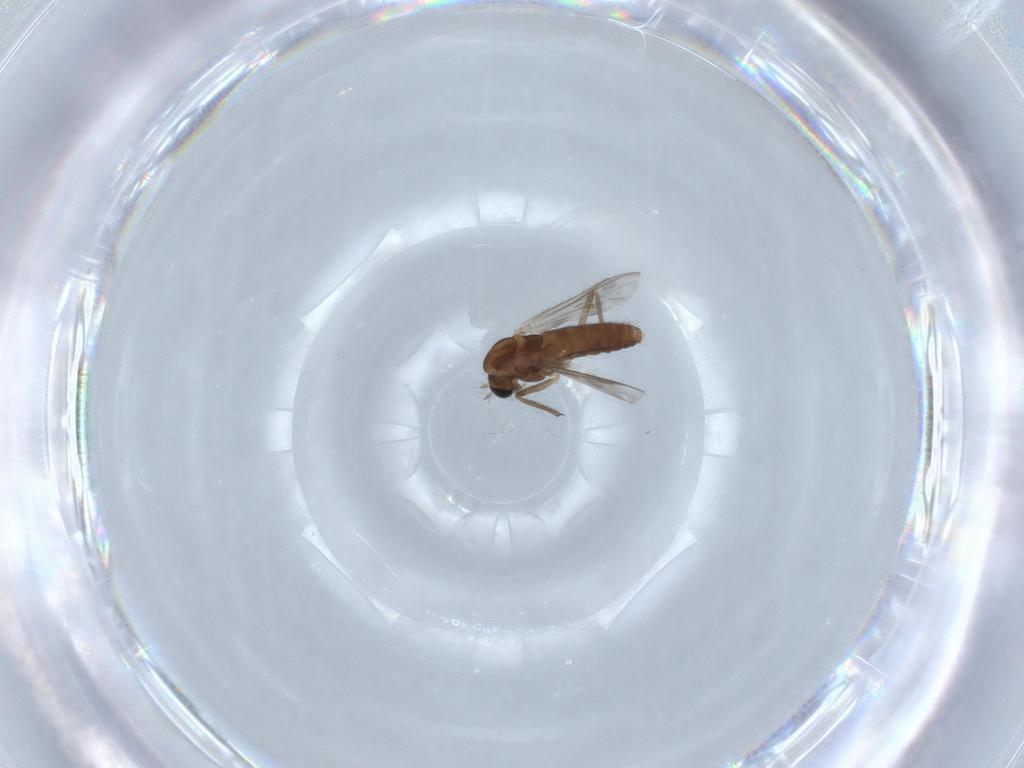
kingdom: Animalia
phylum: Arthropoda
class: Insecta
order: Diptera
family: Chironomidae
